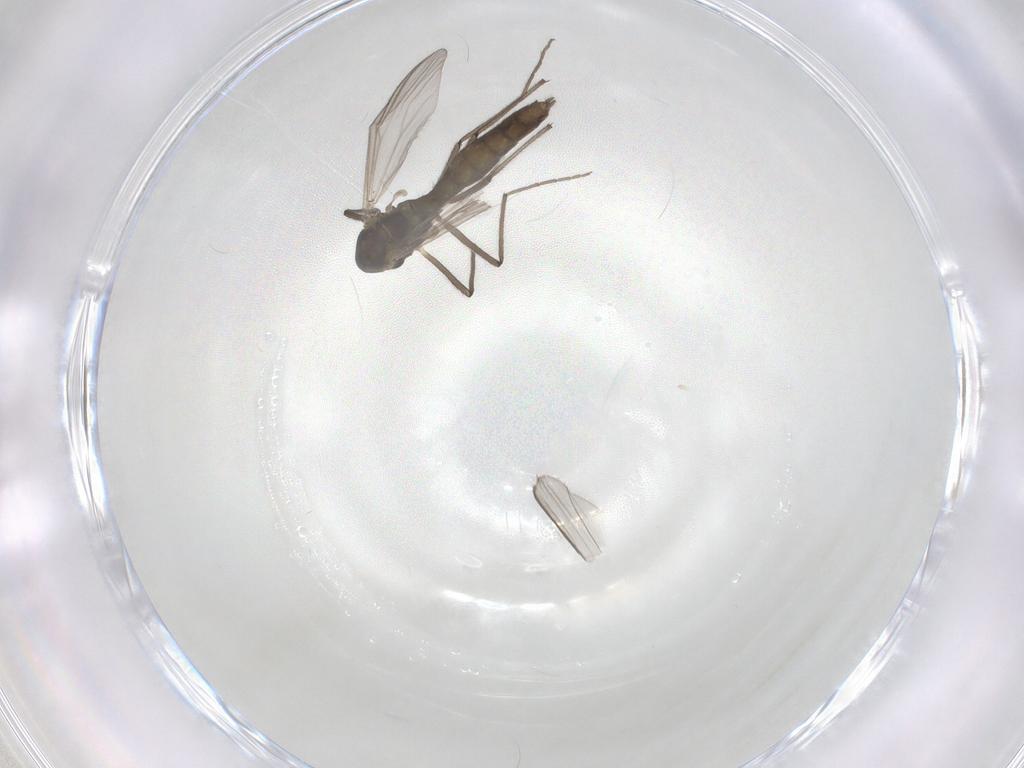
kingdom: Animalia
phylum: Arthropoda
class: Insecta
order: Diptera
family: Chironomidae
